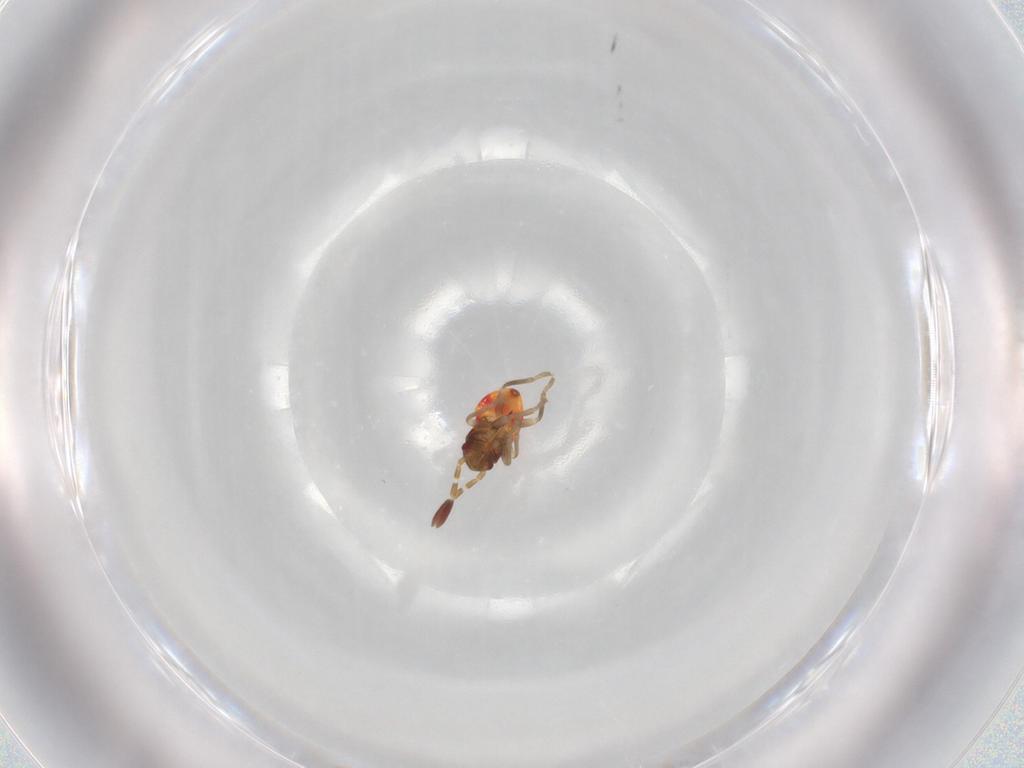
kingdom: Animalia
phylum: Arthropoda
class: Insecta
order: Hemiptera
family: Rhyparochromidae
